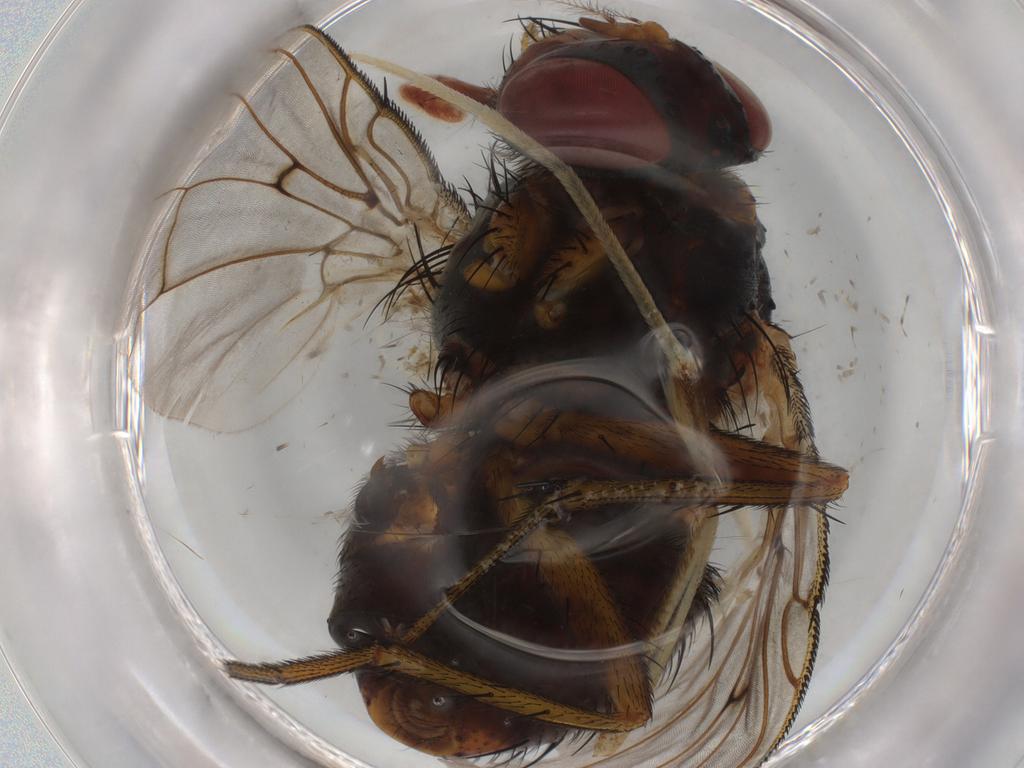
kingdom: Animalia
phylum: Arthropoda
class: Insecta
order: Diptera
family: Tachinidae
